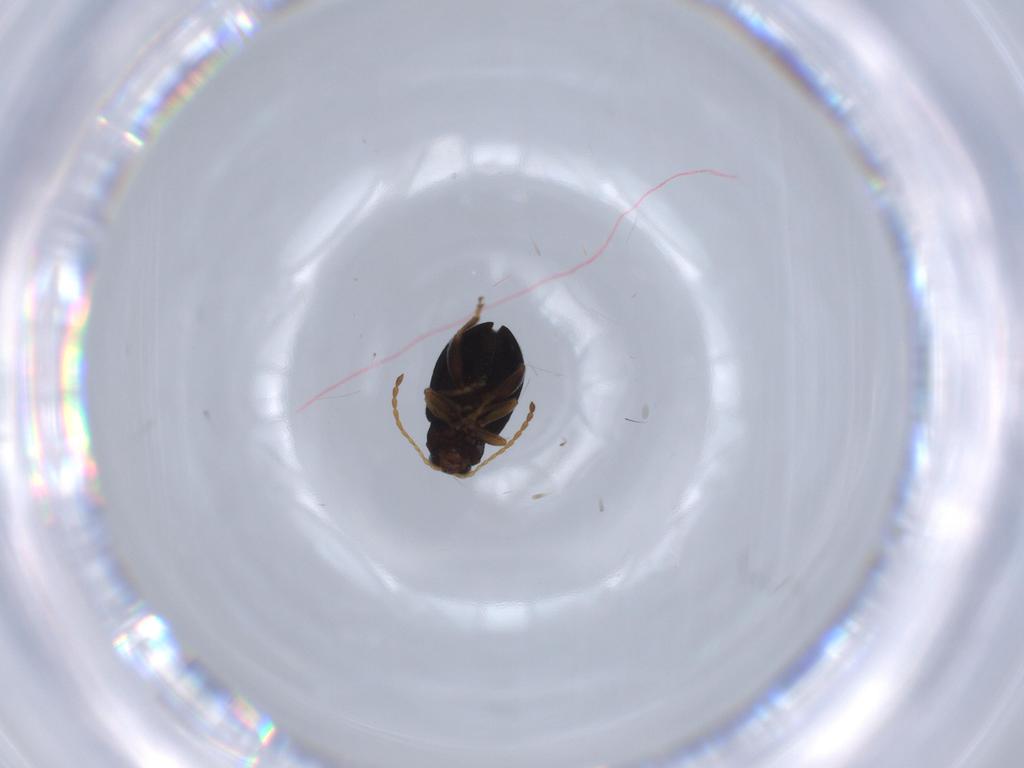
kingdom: Animalia
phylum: Arthropoda
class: Insecta
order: Coleoptera
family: Chrysomelidae
